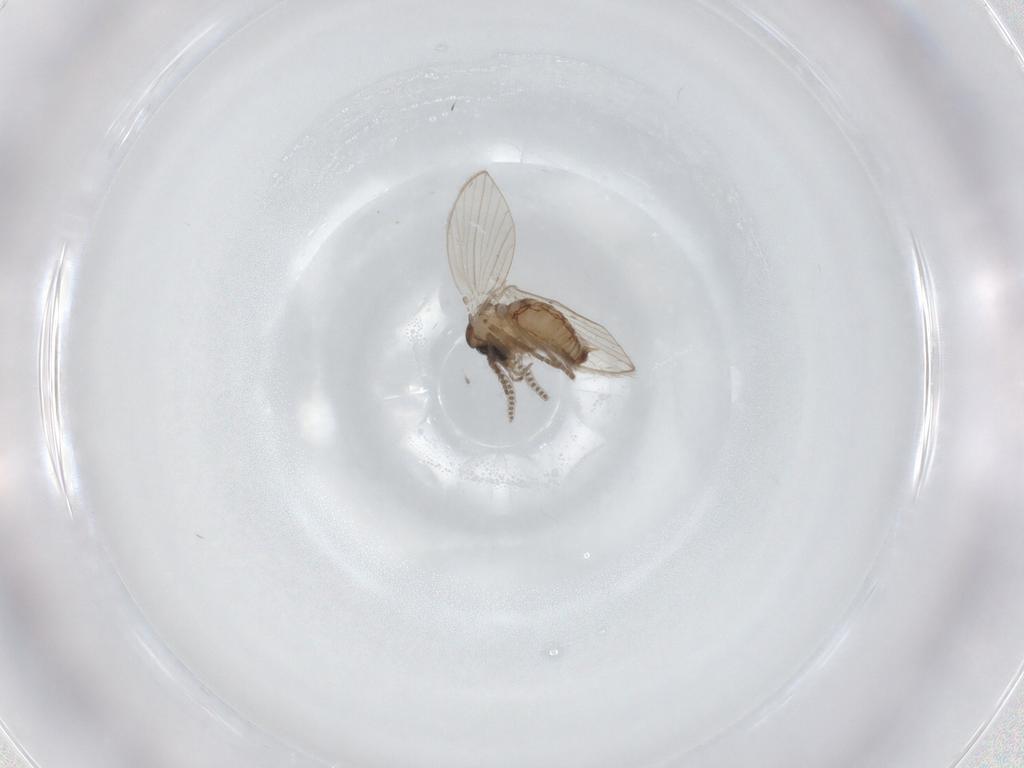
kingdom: Animalia
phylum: Arthropoda
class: Insecta
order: Diptera
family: Psychodidae
